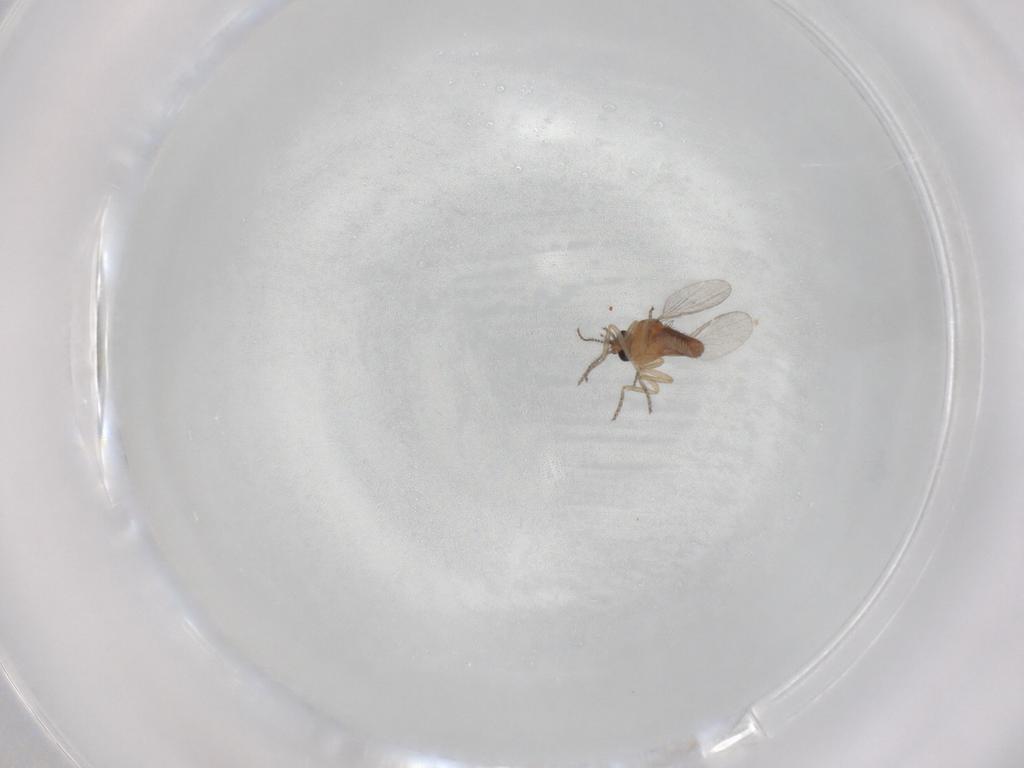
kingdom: Animalia
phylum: Arthropoda
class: Insecta
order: Diptera
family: Ceratopogonidae
